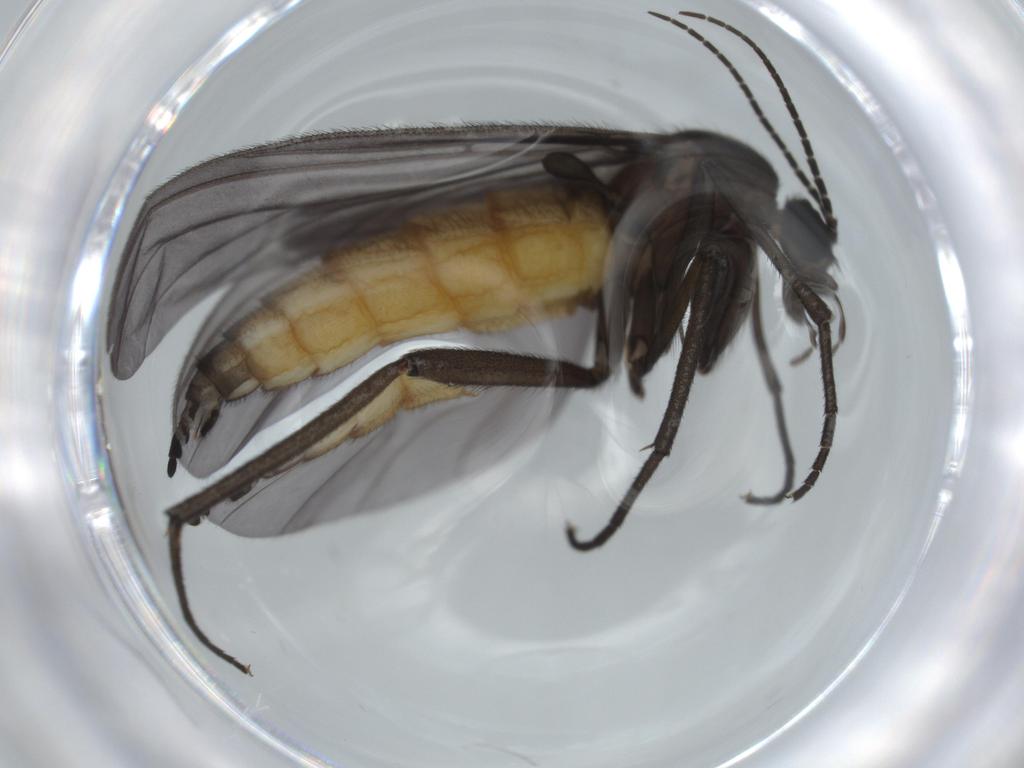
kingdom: Animalia
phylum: Arthropoda
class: Insecta
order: Diptera
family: Sciaridae
